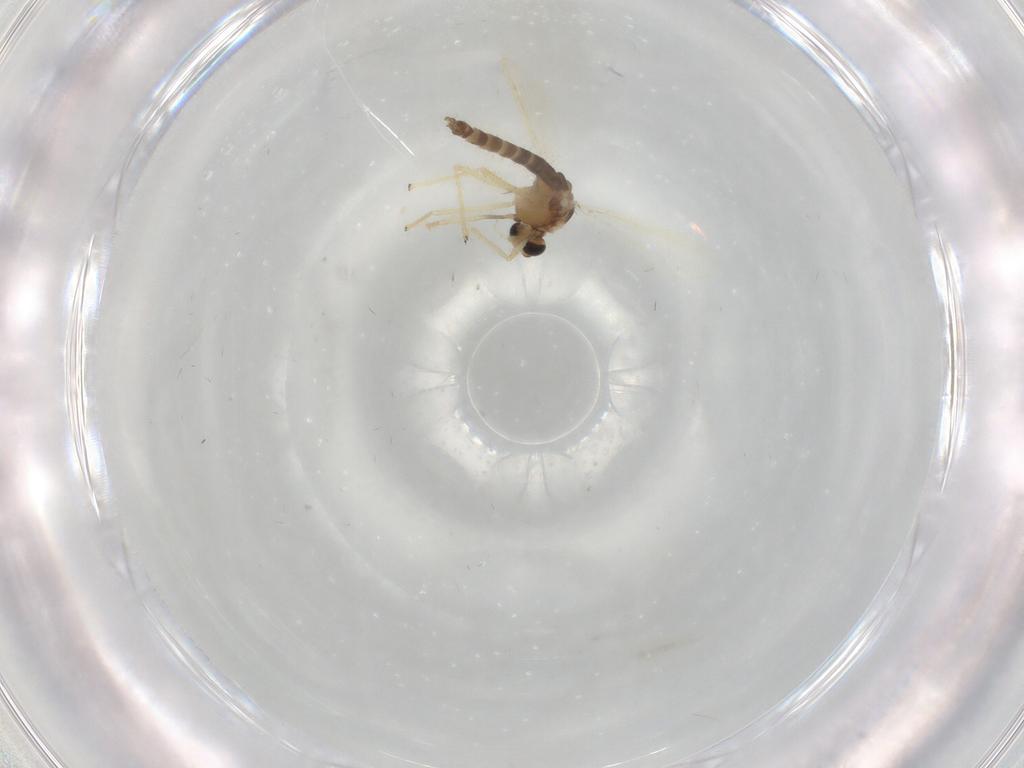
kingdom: Animalia
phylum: Arthropoda
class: Insecta
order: Diptera
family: Chironomidae
